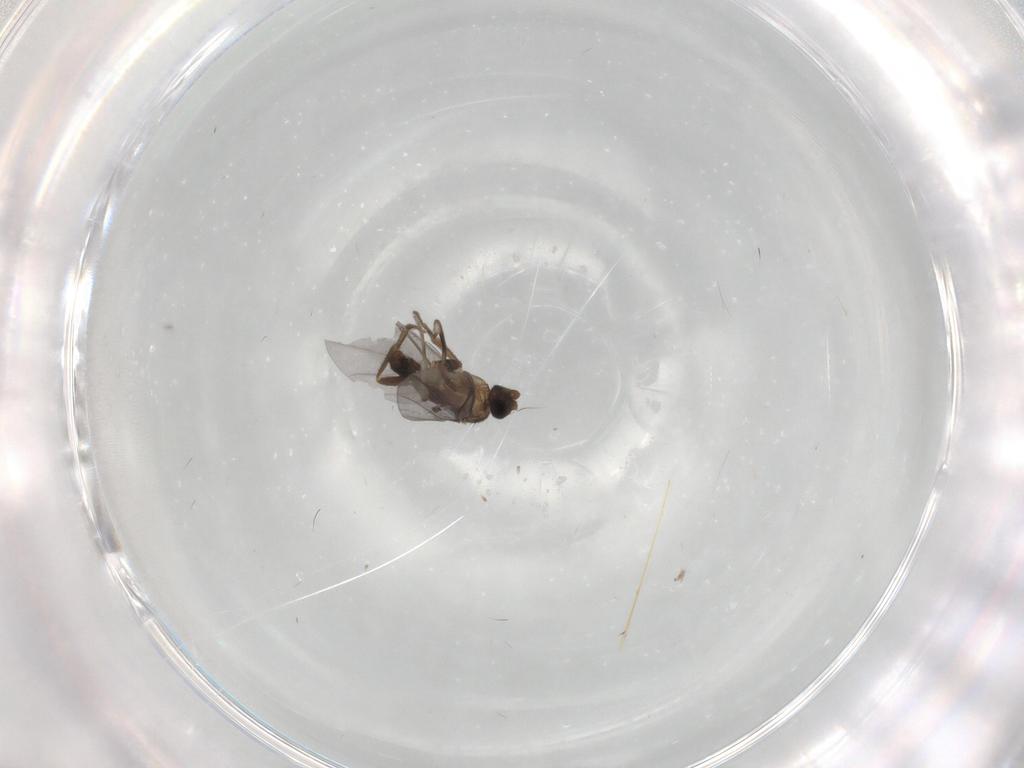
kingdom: Animalia
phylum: Arthropoda
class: Insecta
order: Diptera
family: Phoridae
